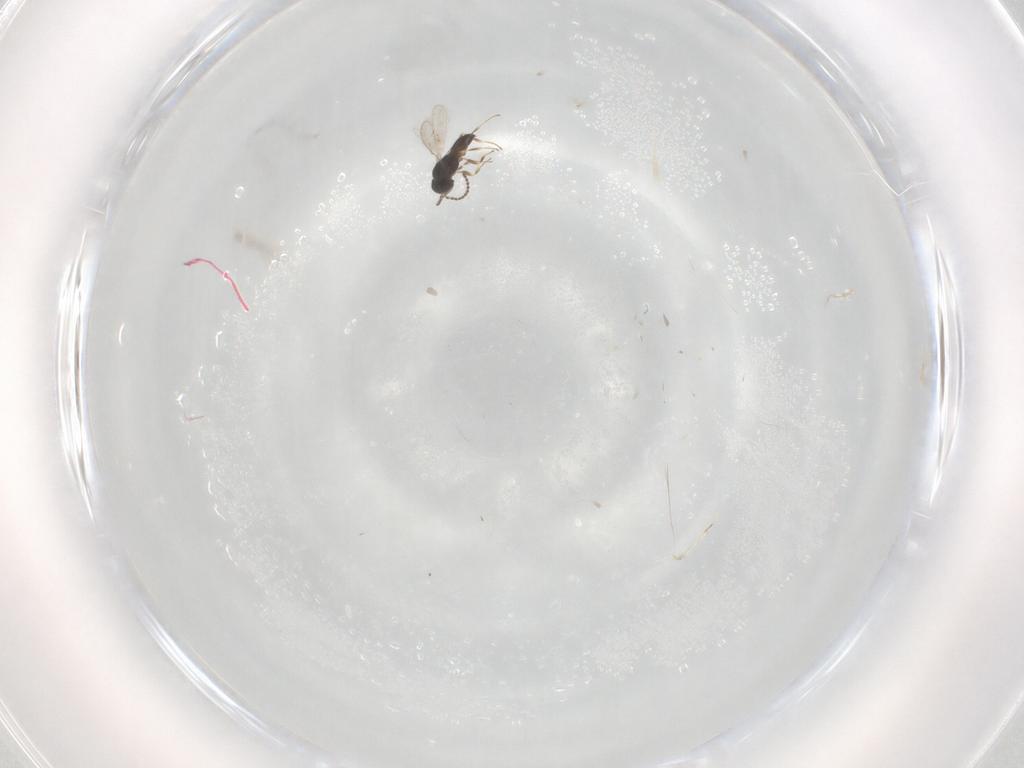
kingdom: Animalia
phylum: Arthropoda
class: Insecta
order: Hymenoptera
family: Scelionidae
